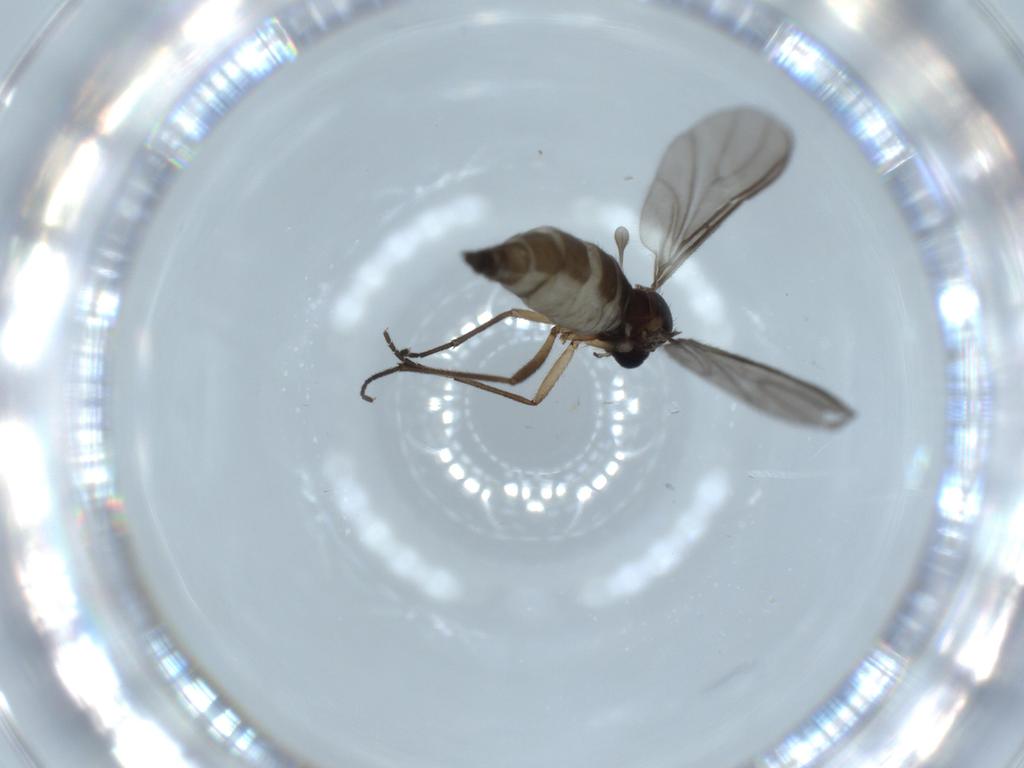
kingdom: Animalia
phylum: Arthropoda
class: Insecta
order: Diptera
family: Sciaridae
